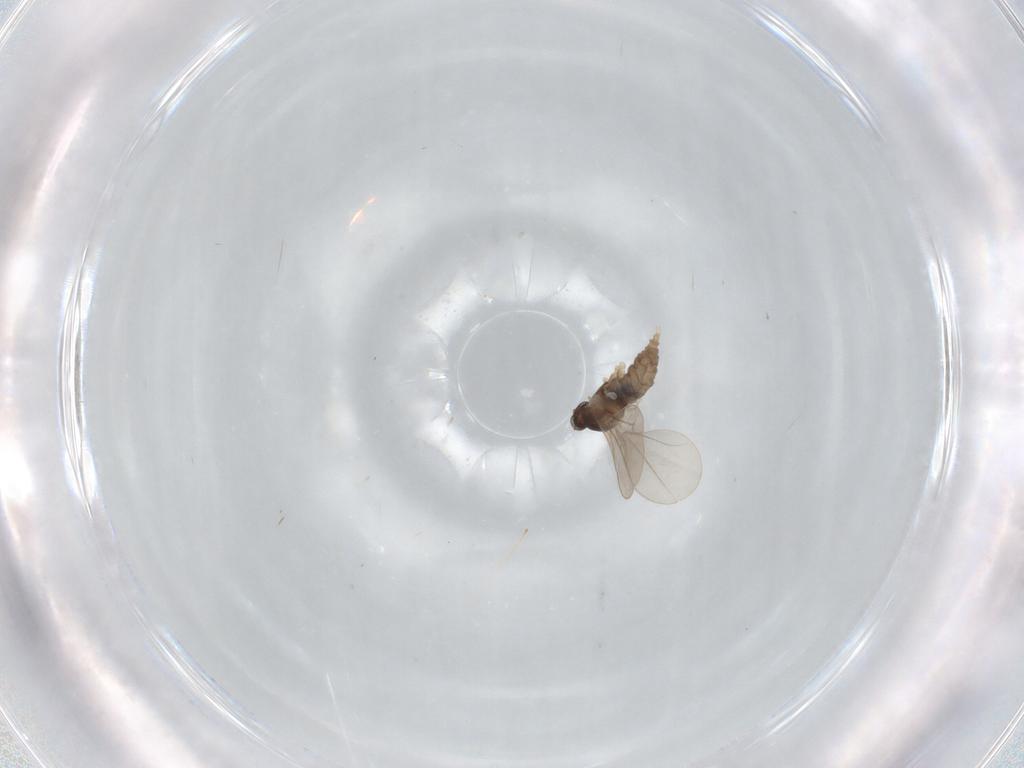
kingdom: Animalia
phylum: Arthropoda
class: Insecta
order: Diptera
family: Cecidomyiidae
